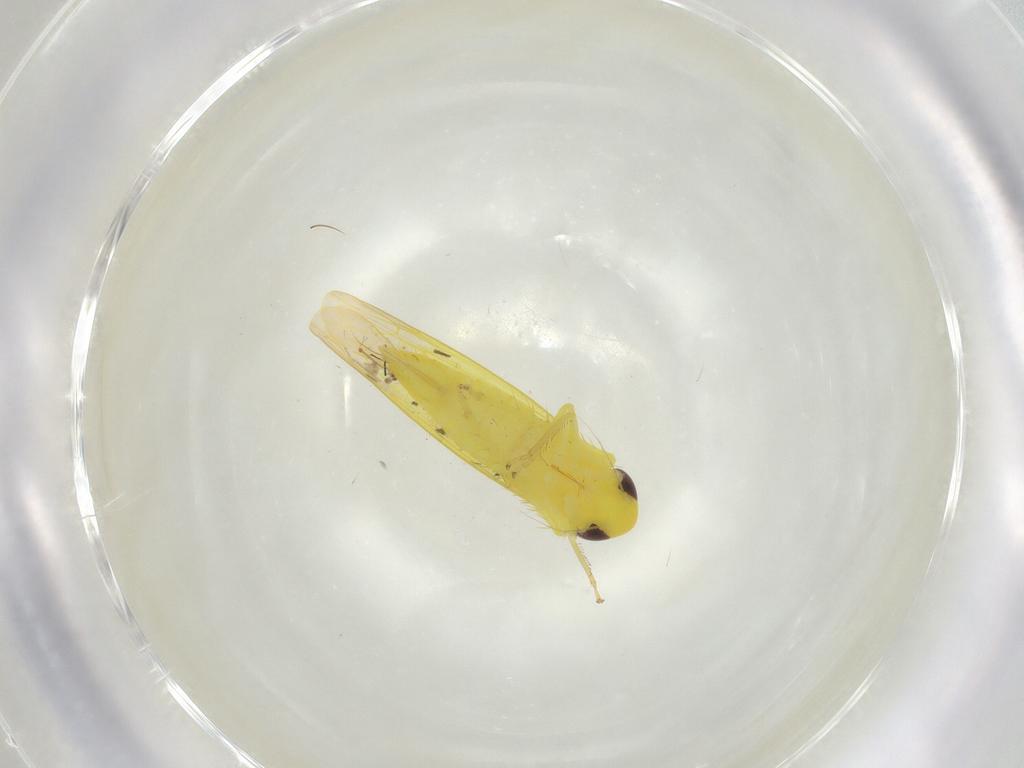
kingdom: Animalia
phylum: Arthropoda
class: Insecta
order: Hemiptera
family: Cicadellidae
